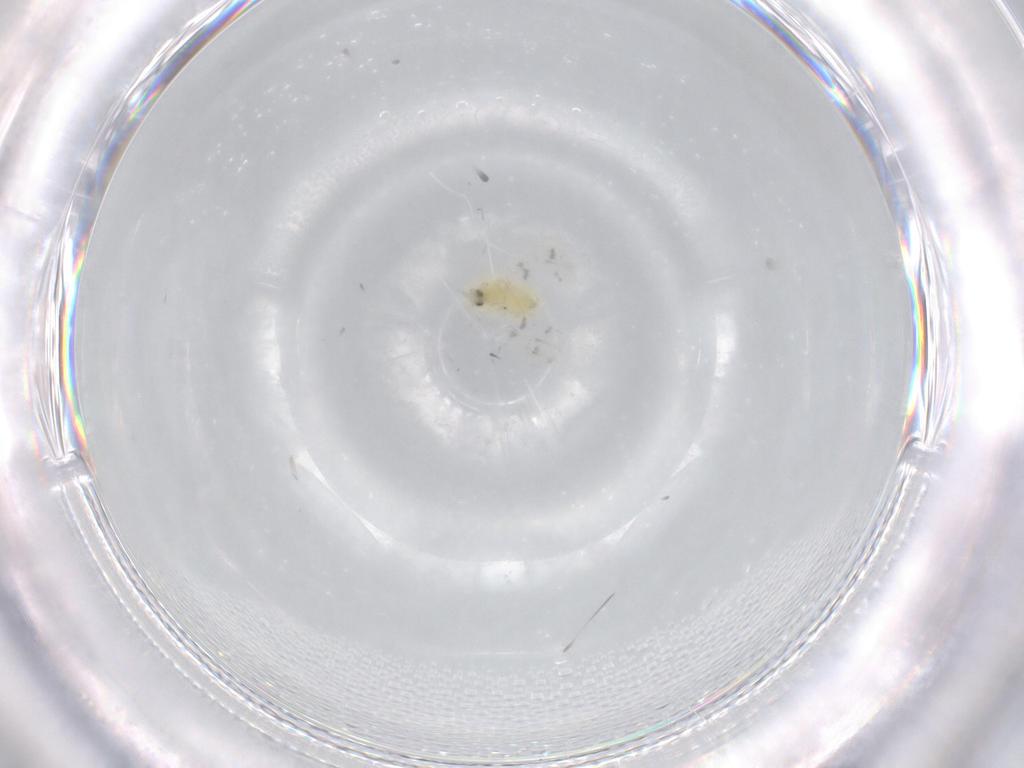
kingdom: Animalia
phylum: Arthropoda
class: Insecta
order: Hemiptera
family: Aleyrodidae
